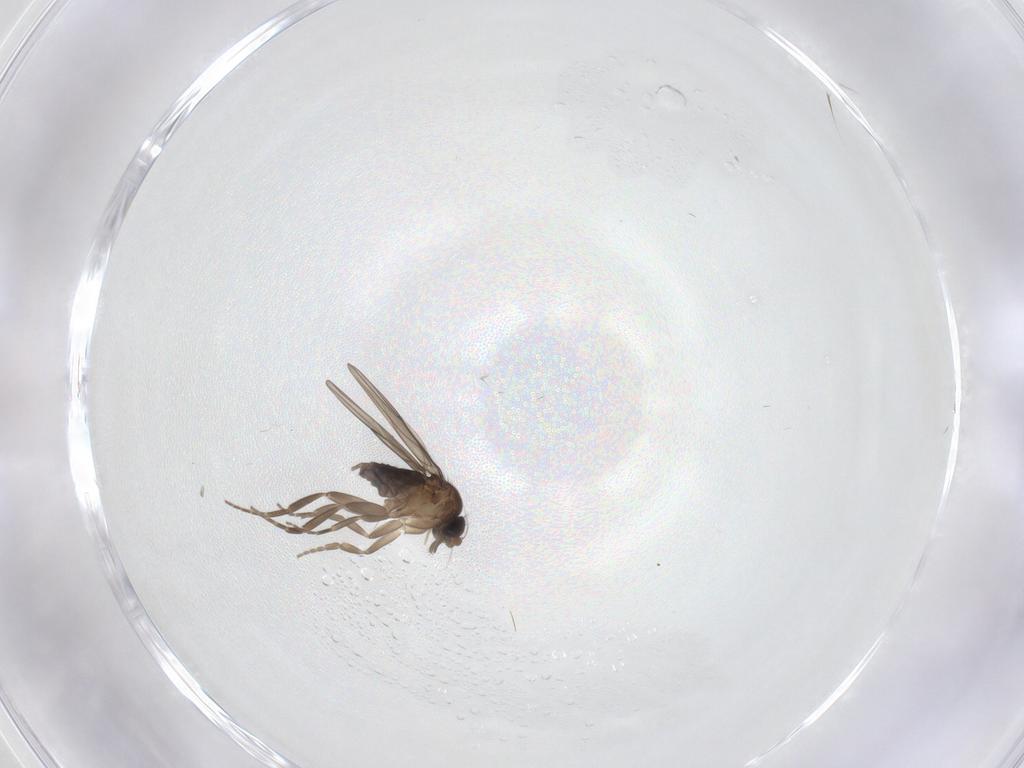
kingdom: Animalia
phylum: Arthropoda
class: Insecta
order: Diptera
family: Chironomidae
